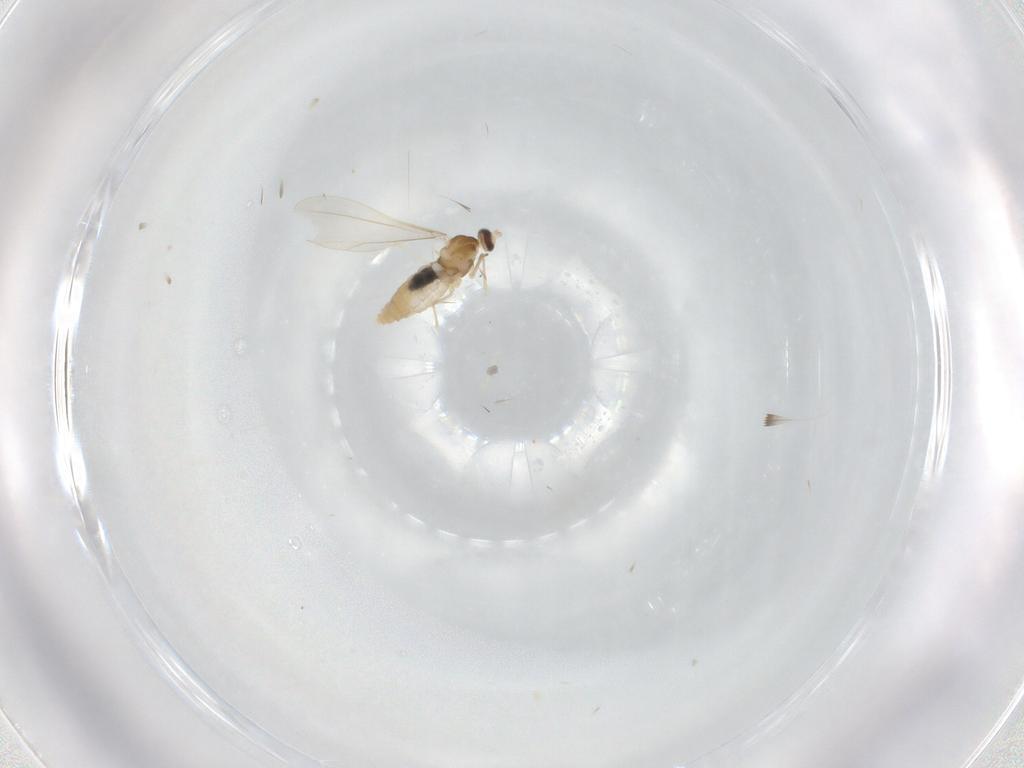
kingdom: Animalia
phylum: Arthropoda
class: Insecta
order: Diptera
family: Cecidomyiidae
